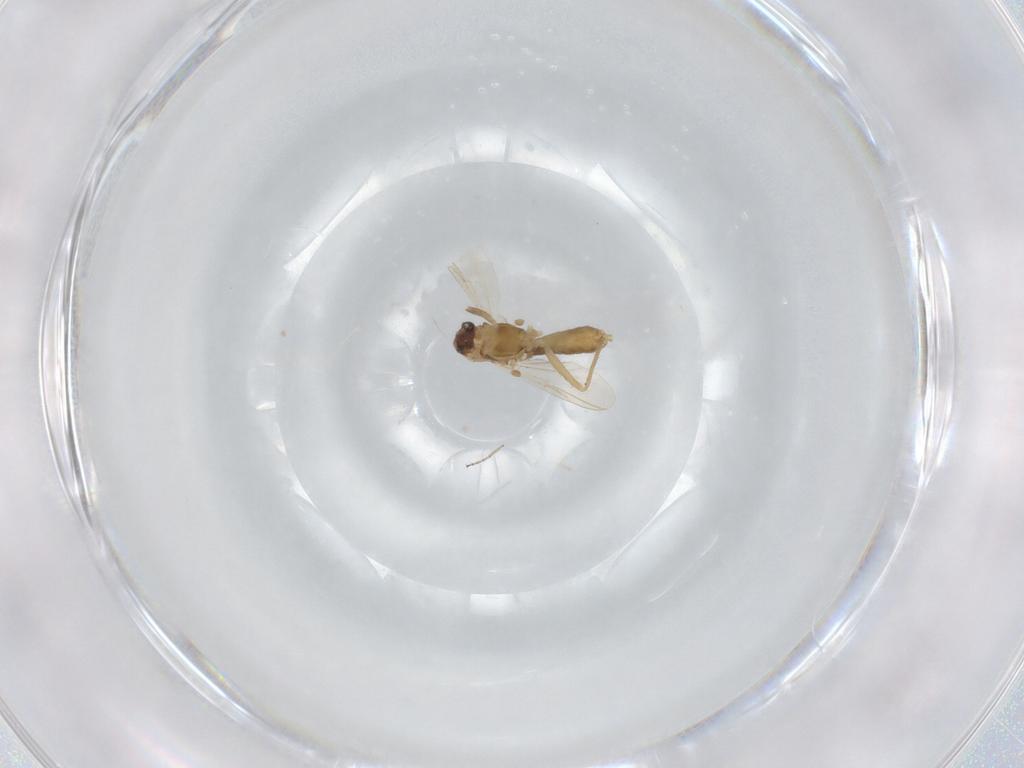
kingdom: Animalia
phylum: Arthropoda
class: Insecta
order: Diptera
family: Chironomidae
